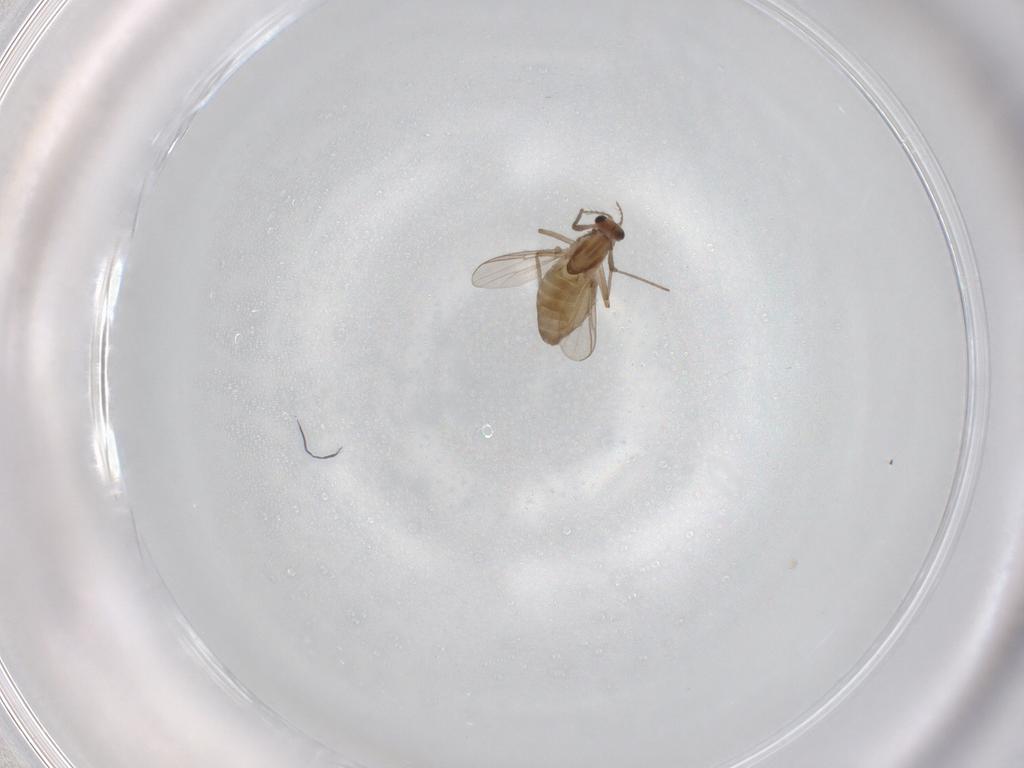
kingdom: Animalia
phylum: Arthropoda
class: Insecta
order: Diptera
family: Chironomidae
